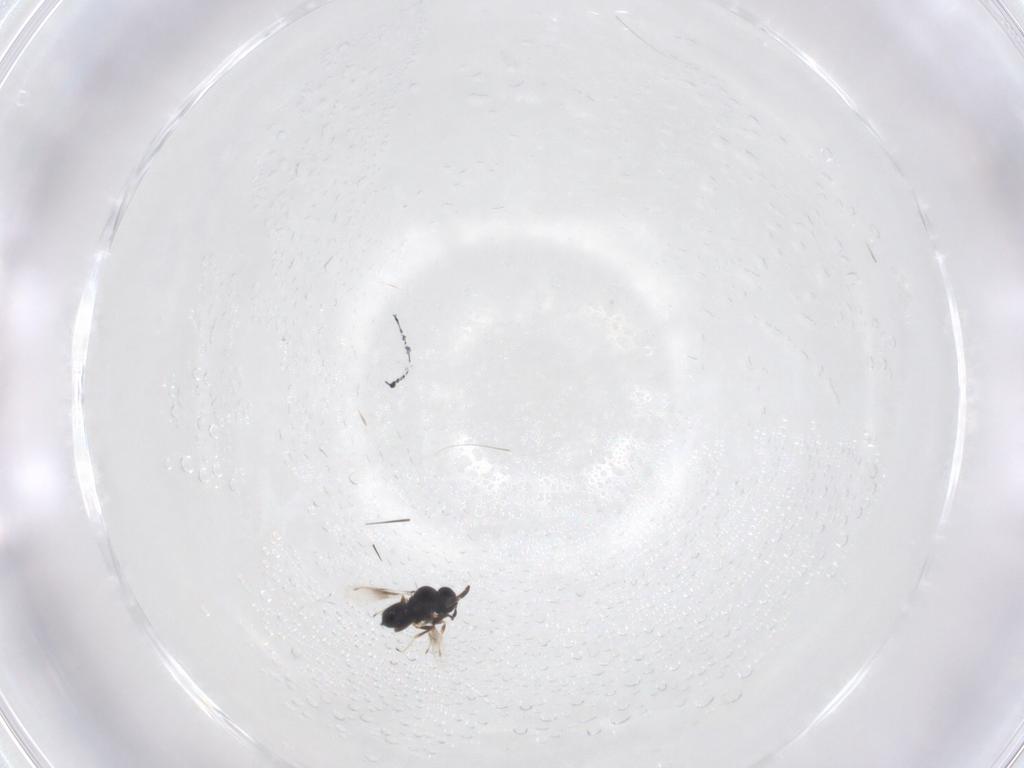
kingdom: Animalia
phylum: Arthropoda
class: Insecta
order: Hymenoptera
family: Scelionidae
